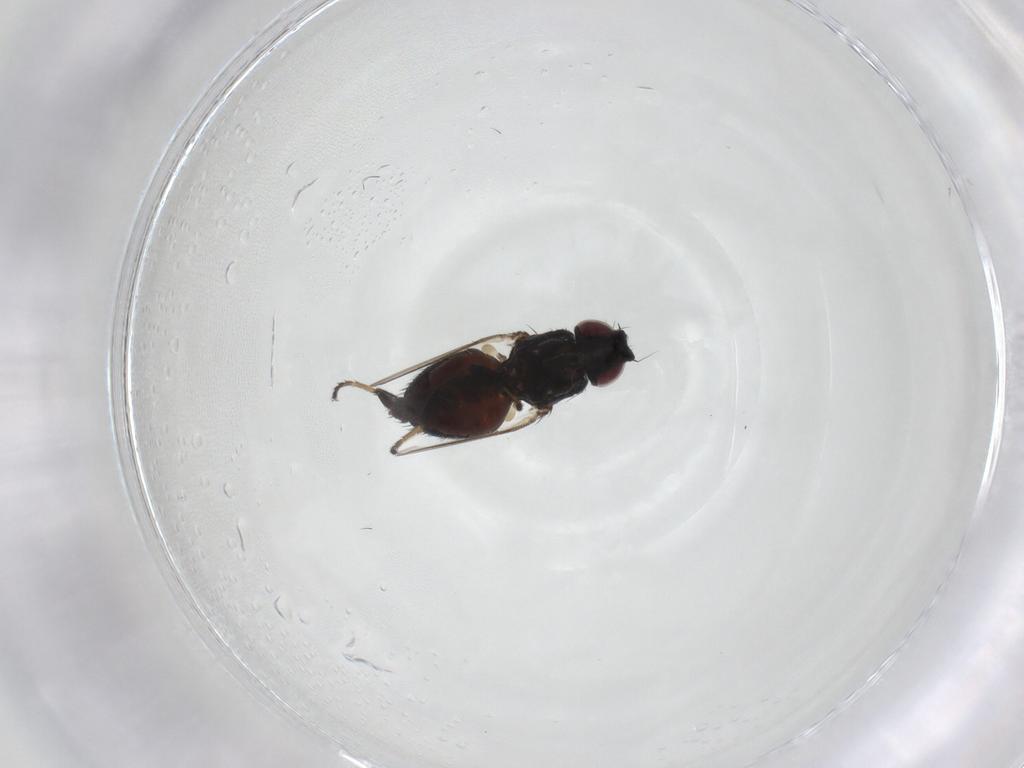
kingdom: Animalia
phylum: Arthropoda
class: Insecta
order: Diptera
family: Milichiidae
